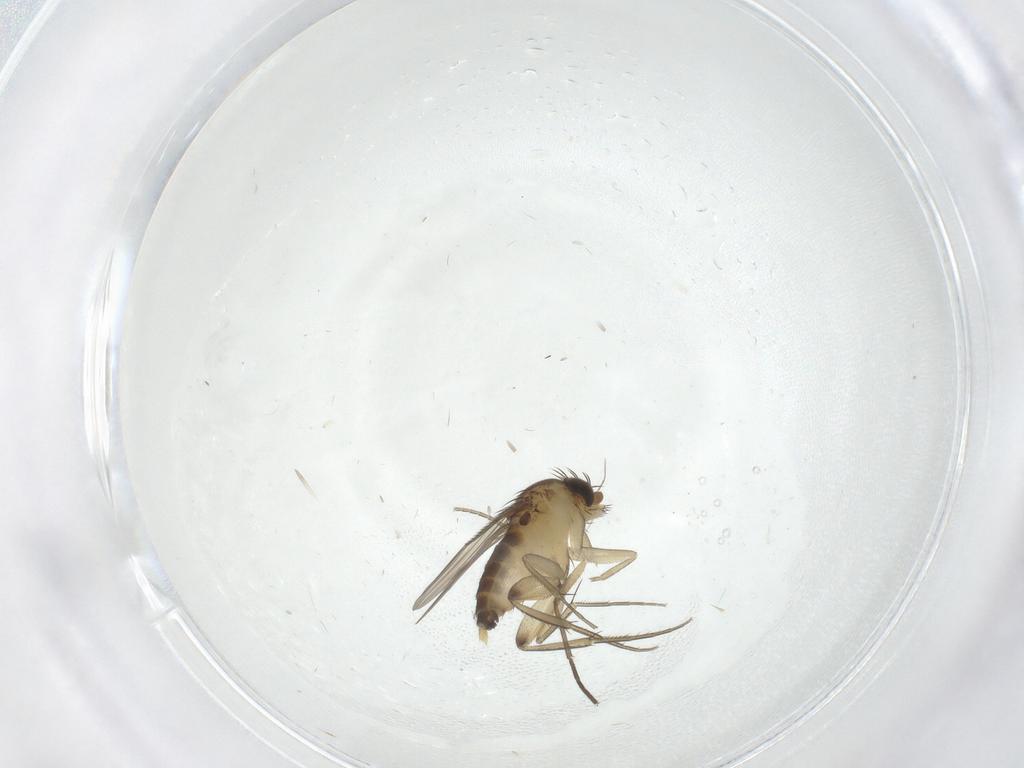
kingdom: Animalia
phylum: Arthropoda
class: Insecta
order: Diptera
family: Sciaridae
